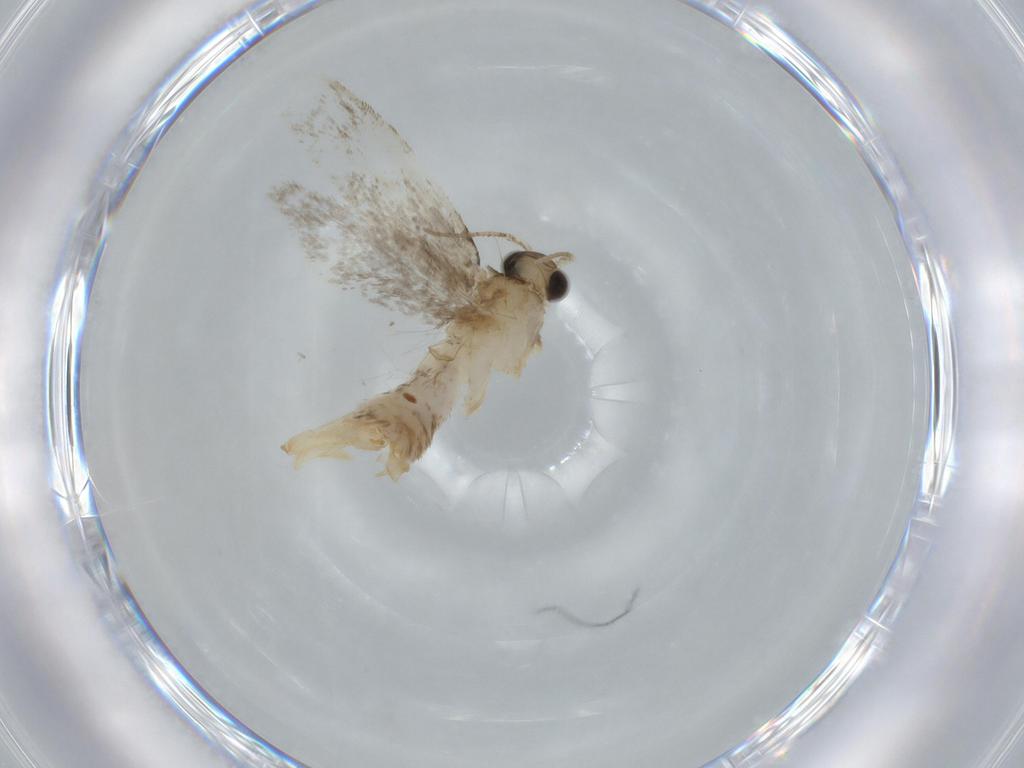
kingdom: Animalia
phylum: Arthropoda
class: Insecta
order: Lepidoptera
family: Tineidae
